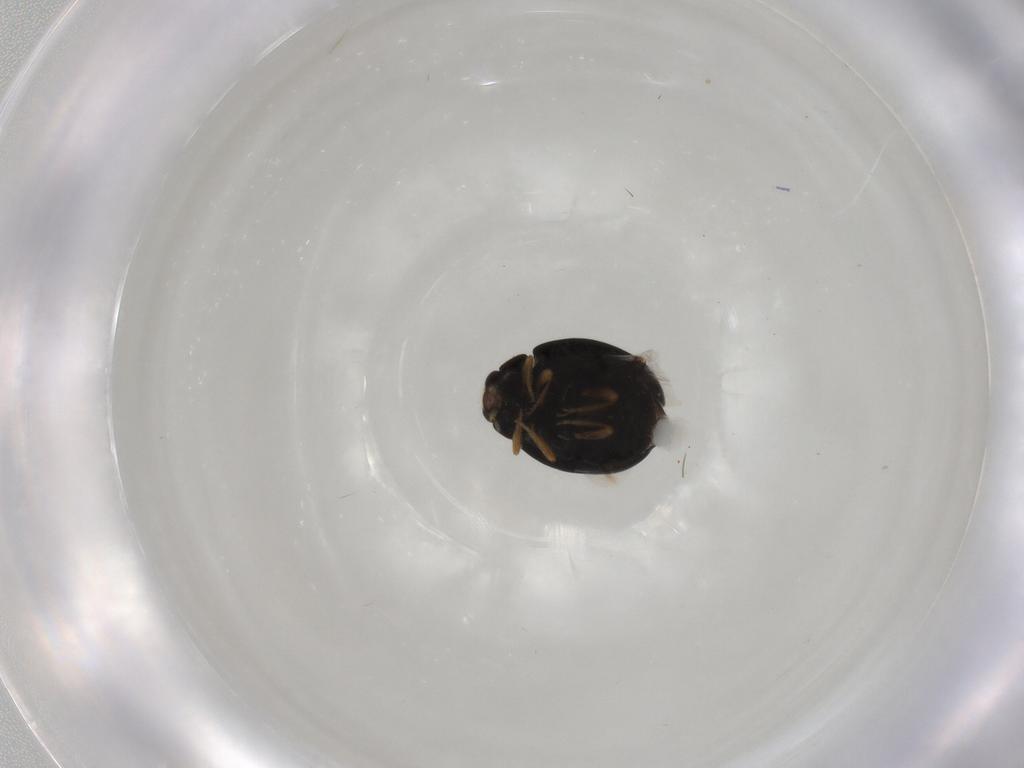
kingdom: Animalia
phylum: Arthropoda
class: Insecta
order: Coleoptera
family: Coccinellidae
